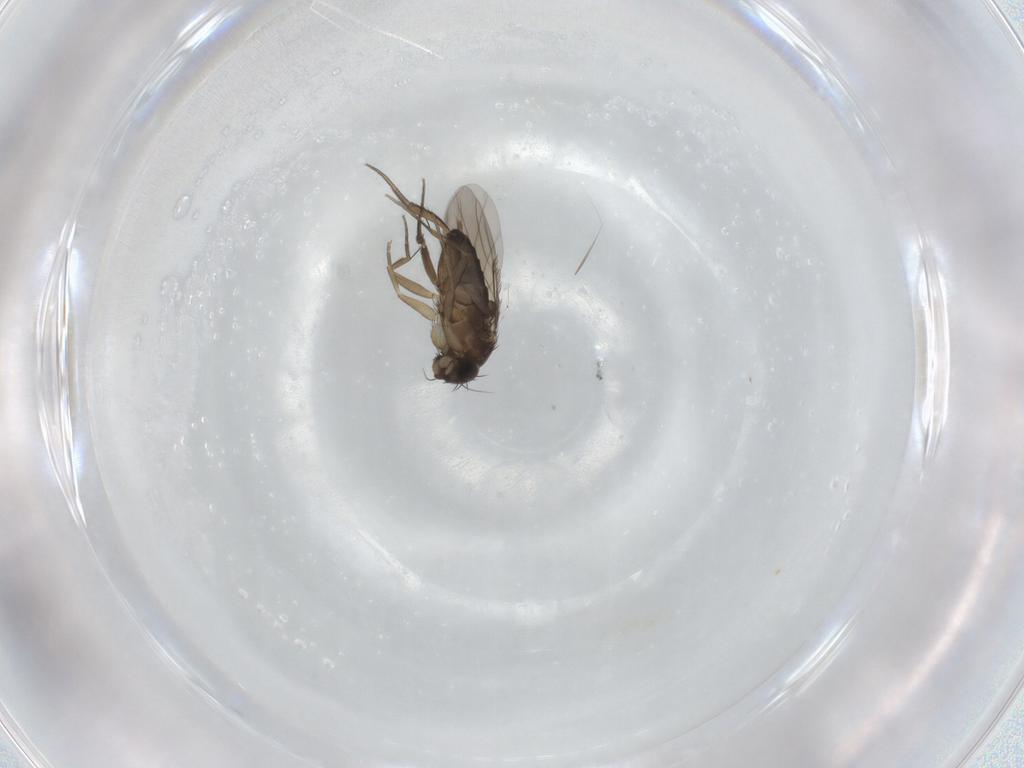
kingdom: Animalia
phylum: Arthropoda
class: Insecta
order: Diptera
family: Phoridae
